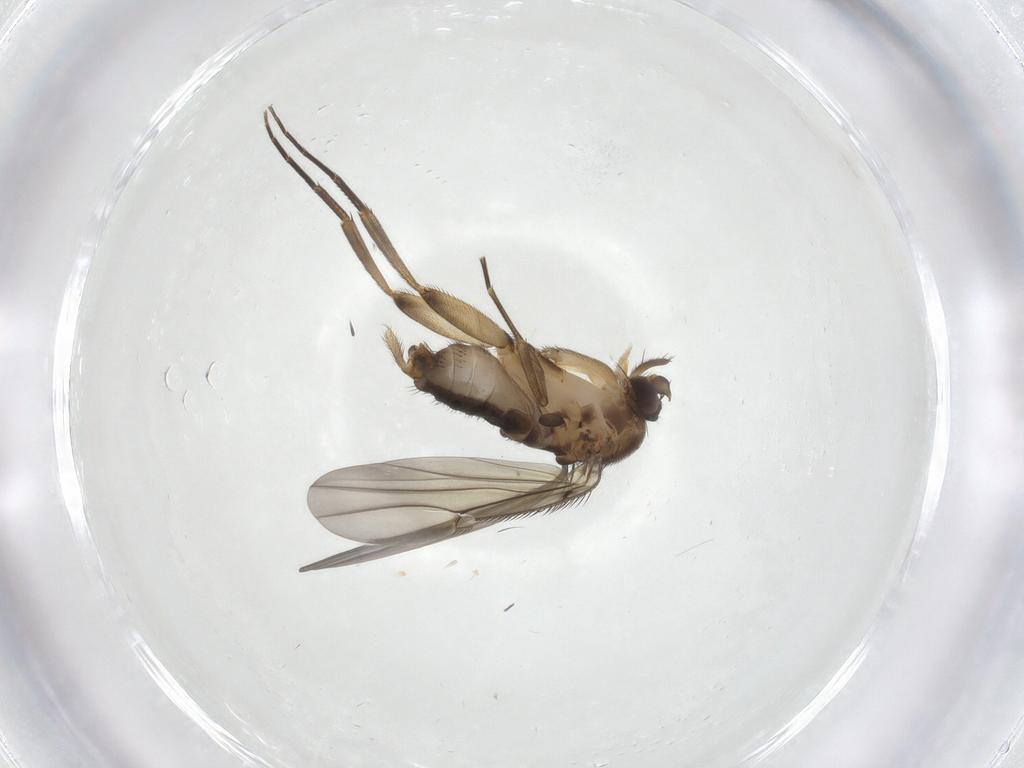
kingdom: Animalia
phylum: Arthropoda
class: Insecta
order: Diptera
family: Phoridae
